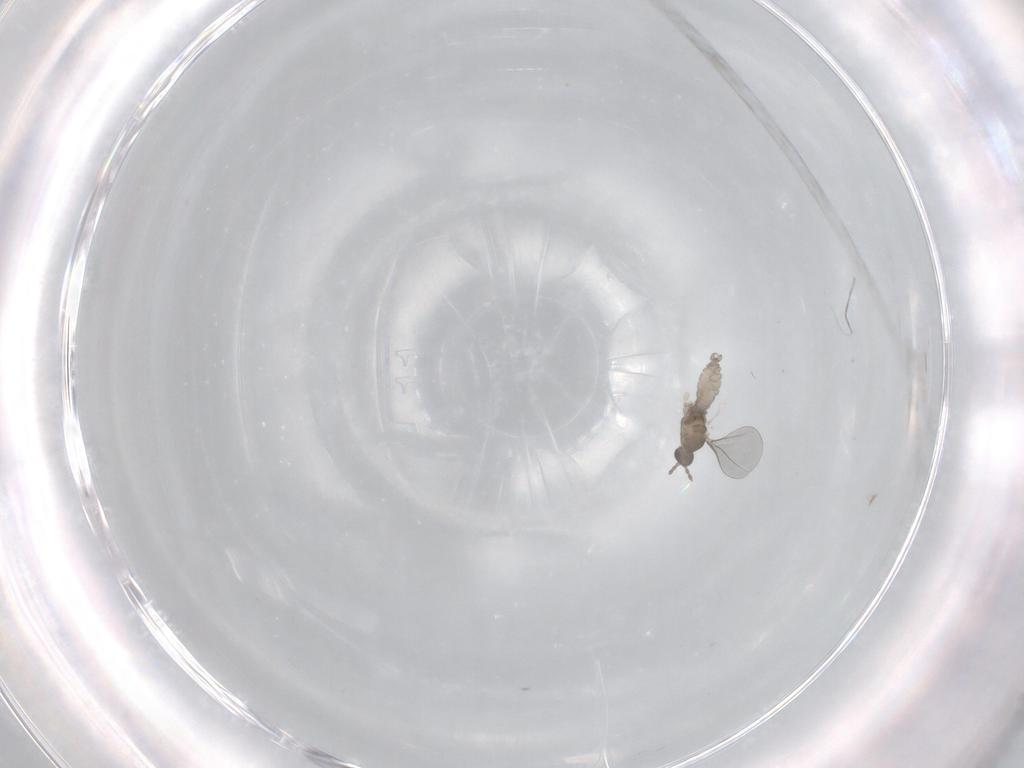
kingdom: Animalia
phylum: Arthropoda
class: Insecta
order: Diptera
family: Cecidomyiidae
